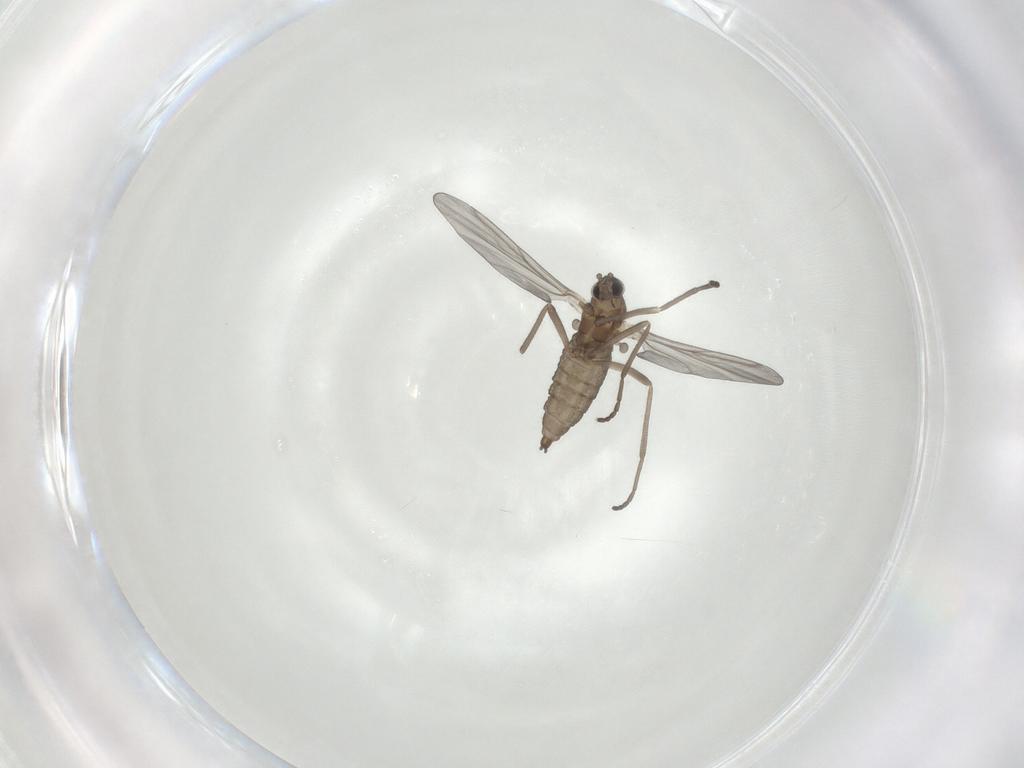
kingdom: Animalia
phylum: Arthropoda
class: Insecta
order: Diptera
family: Cecidomyiidae
